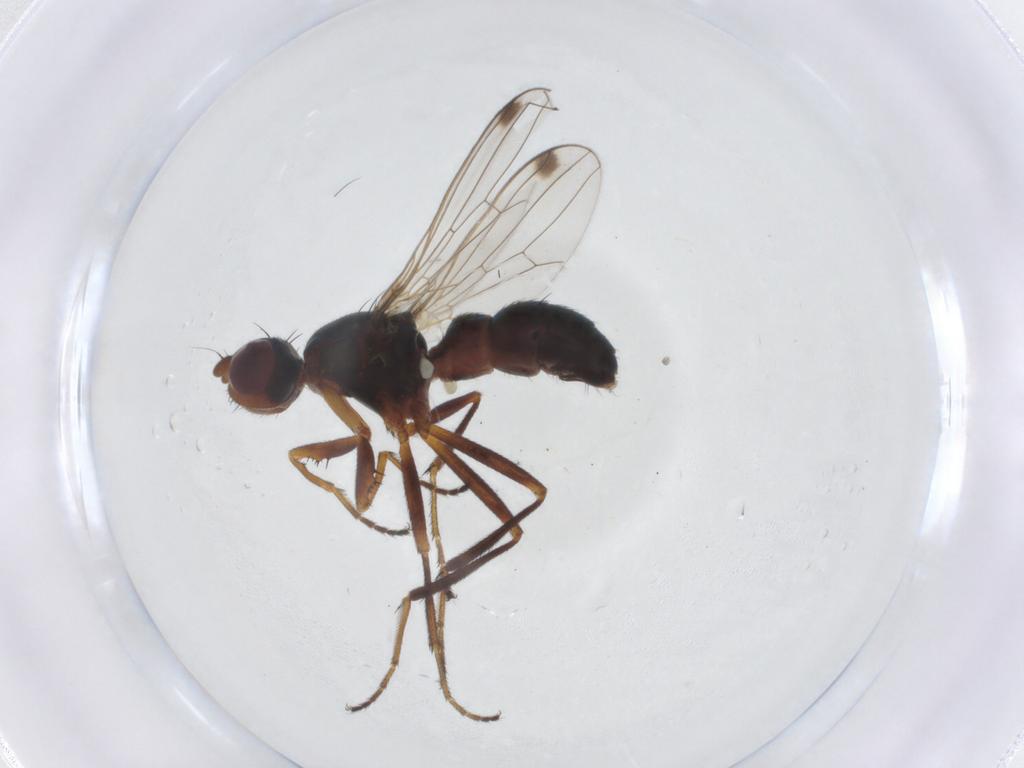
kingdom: Animalia
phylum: Arthropoda
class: Insecta
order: Diptera
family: Sepsidae
